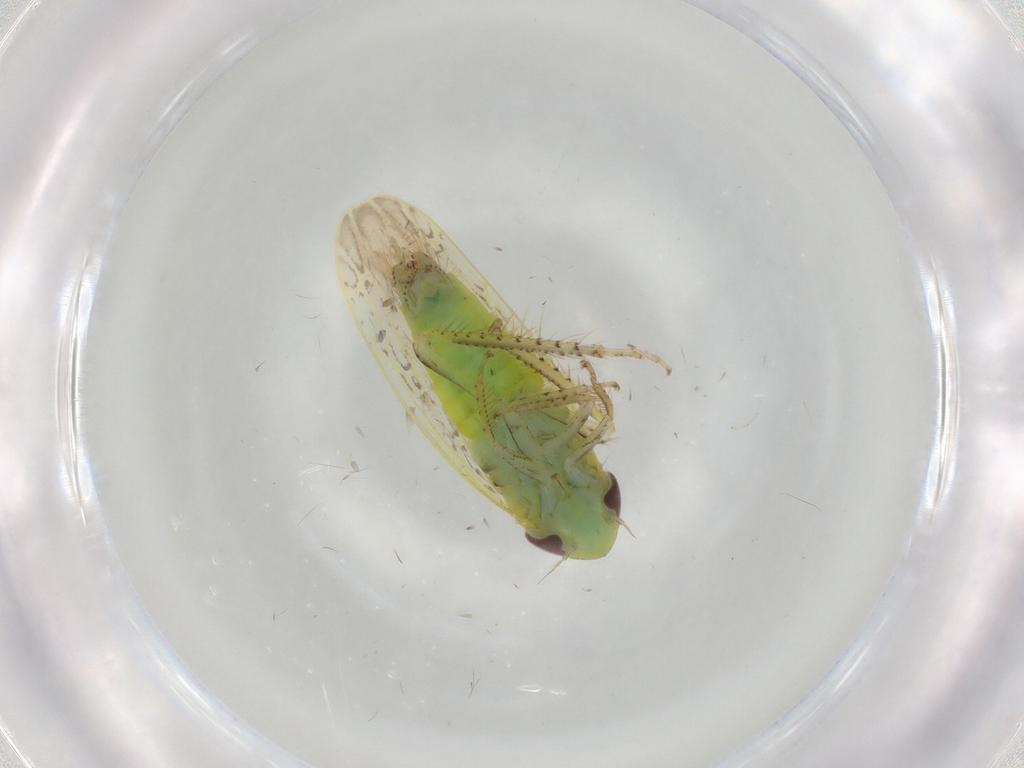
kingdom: Animalia
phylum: Arthropoda
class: Insecta
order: Hemiptera
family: Cicadellidae
